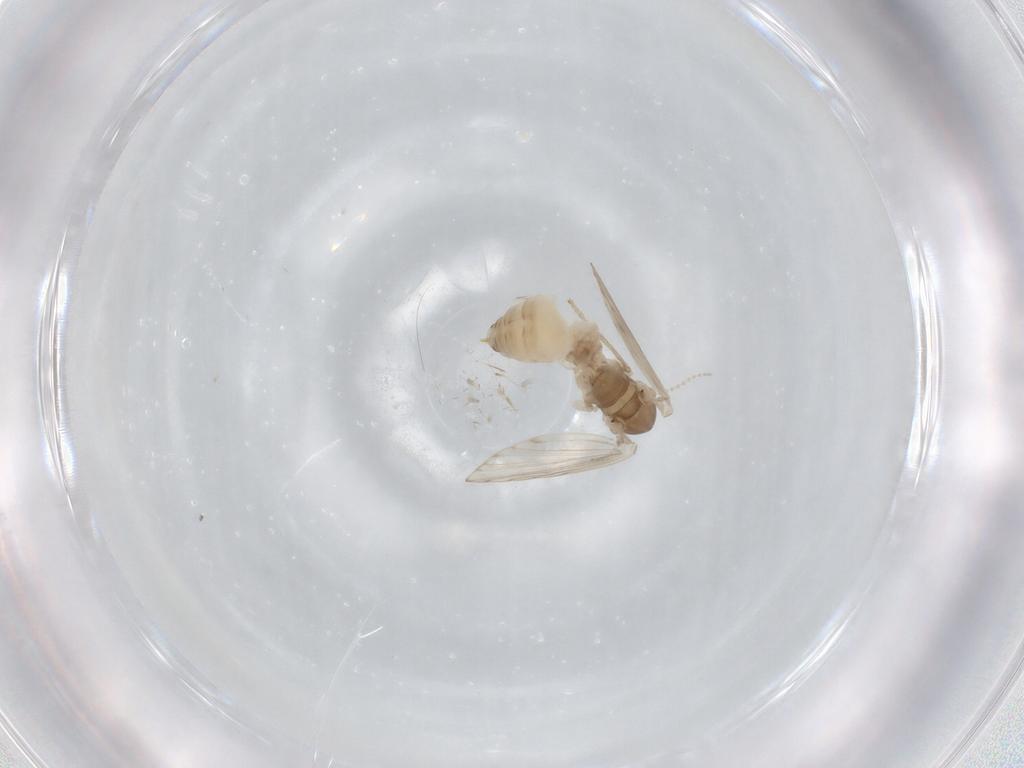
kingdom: Animalia
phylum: Arthropoda
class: Insecta
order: Diptera
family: Psychodidae
